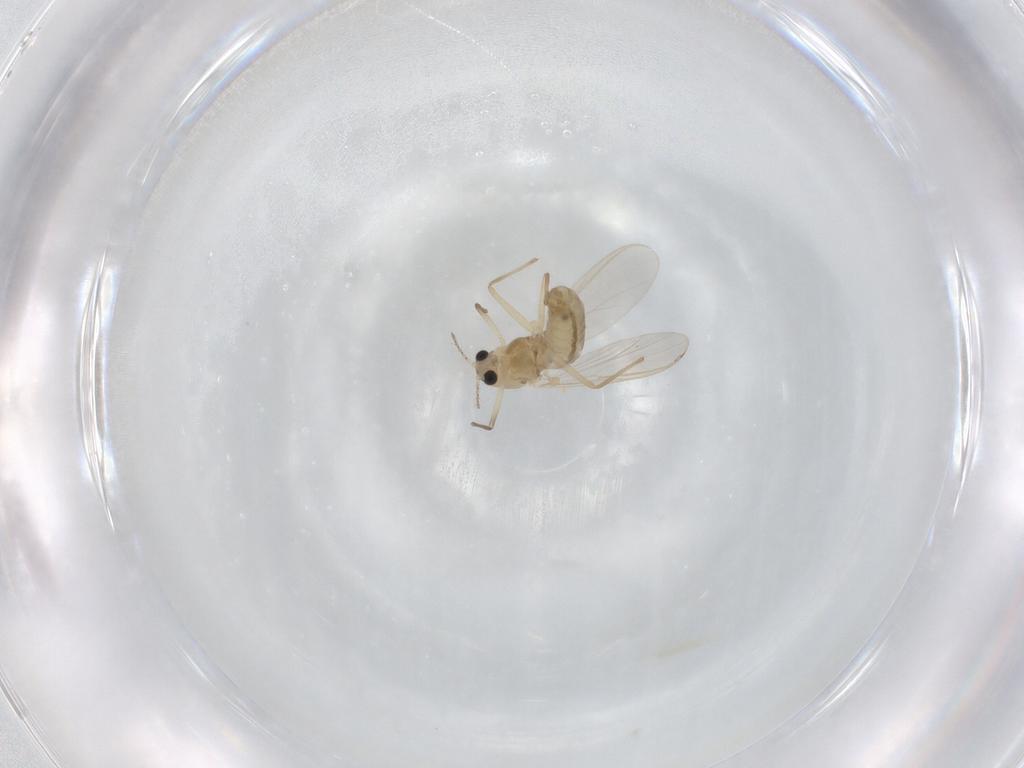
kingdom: Animalia
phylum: Arthropoda
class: Insecta
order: Diptera
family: Chironomidae
